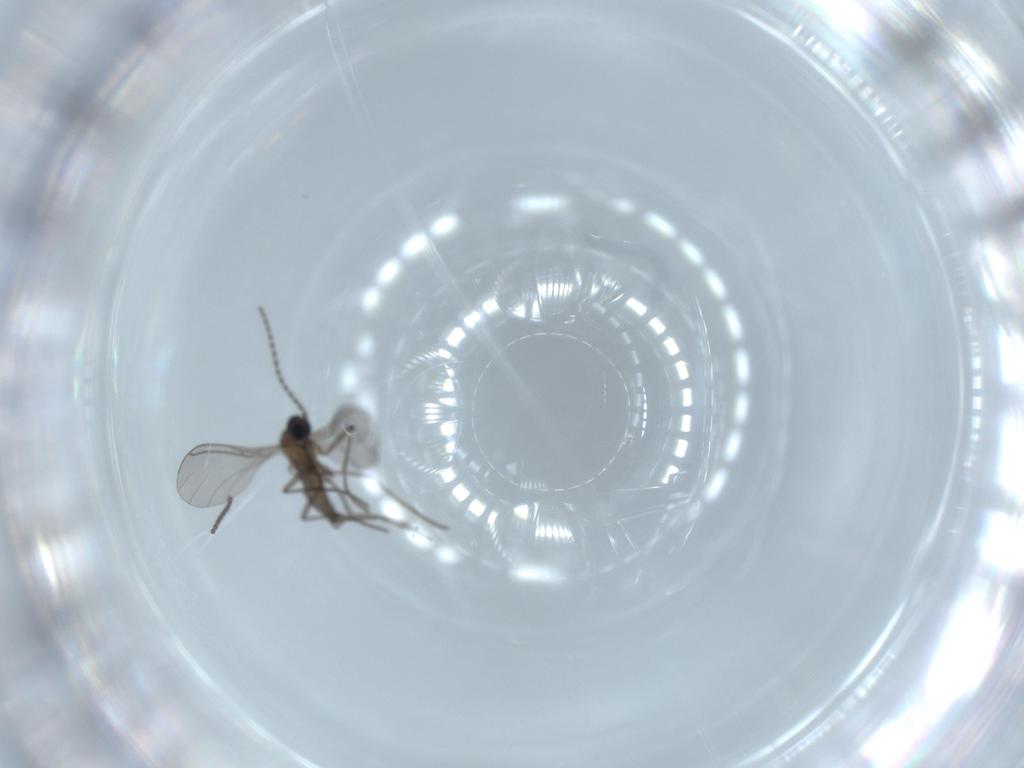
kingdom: Animalia
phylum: Arthropoda
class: Insecta
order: Diptera
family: Sciaridae
